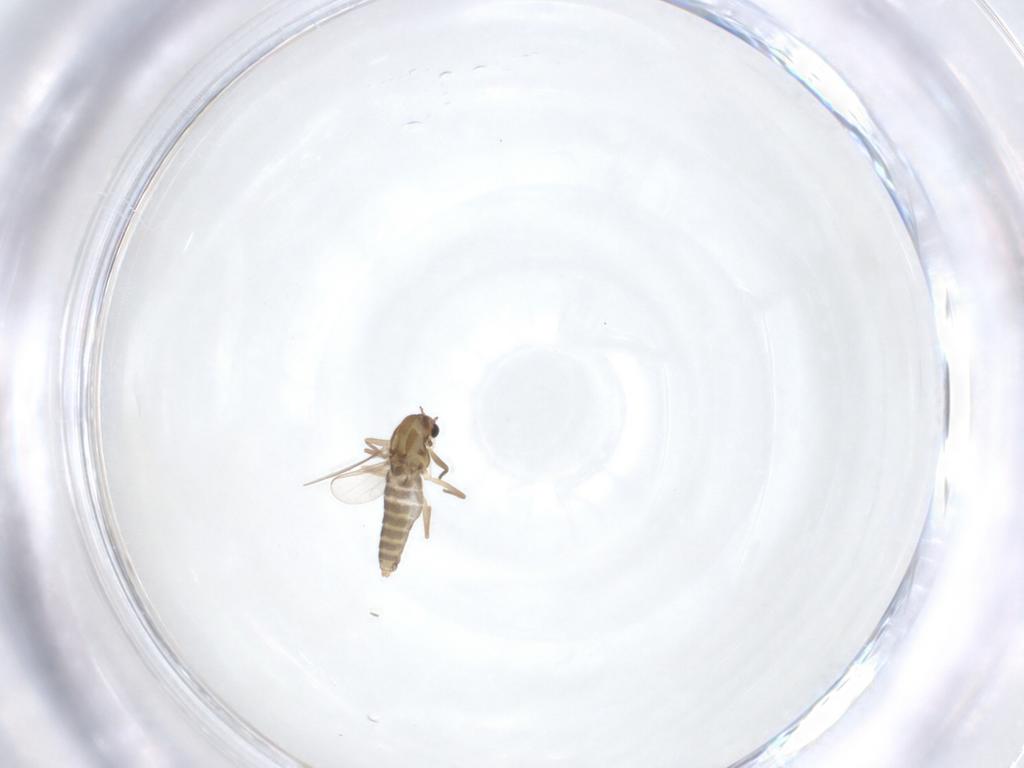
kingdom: Animalia
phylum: Arthropoda
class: Insecta
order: Diptera
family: Chironomidae
